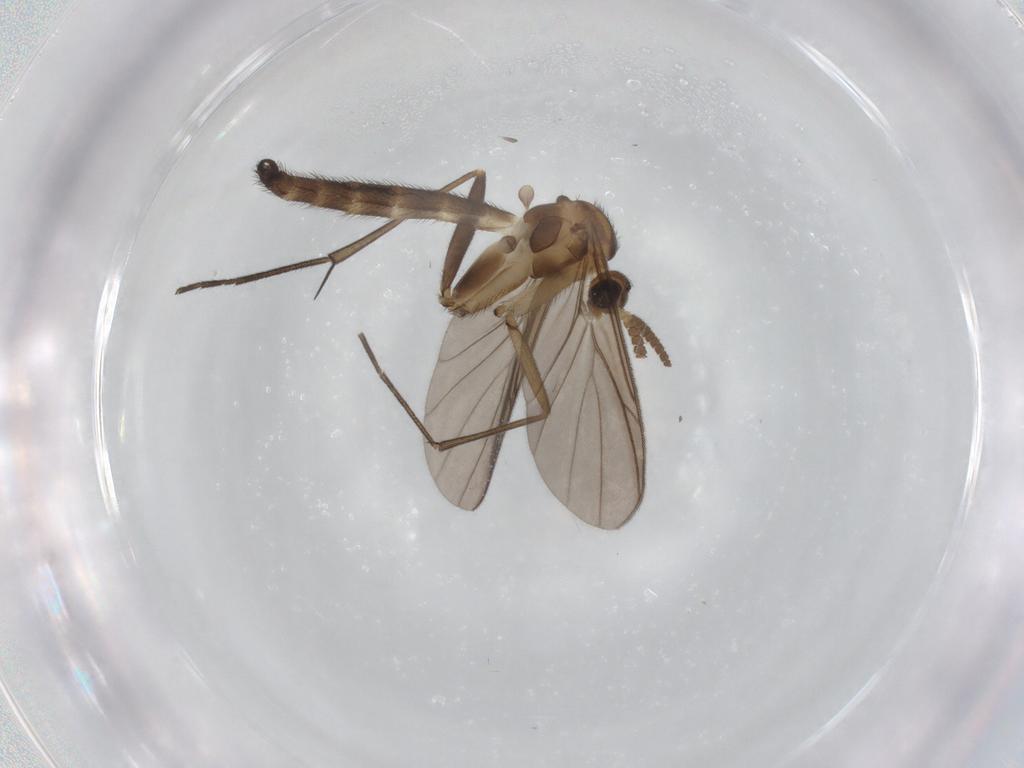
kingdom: Animalia
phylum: Arthropoda
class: Insecta
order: Diptera
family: Keroplatidae
